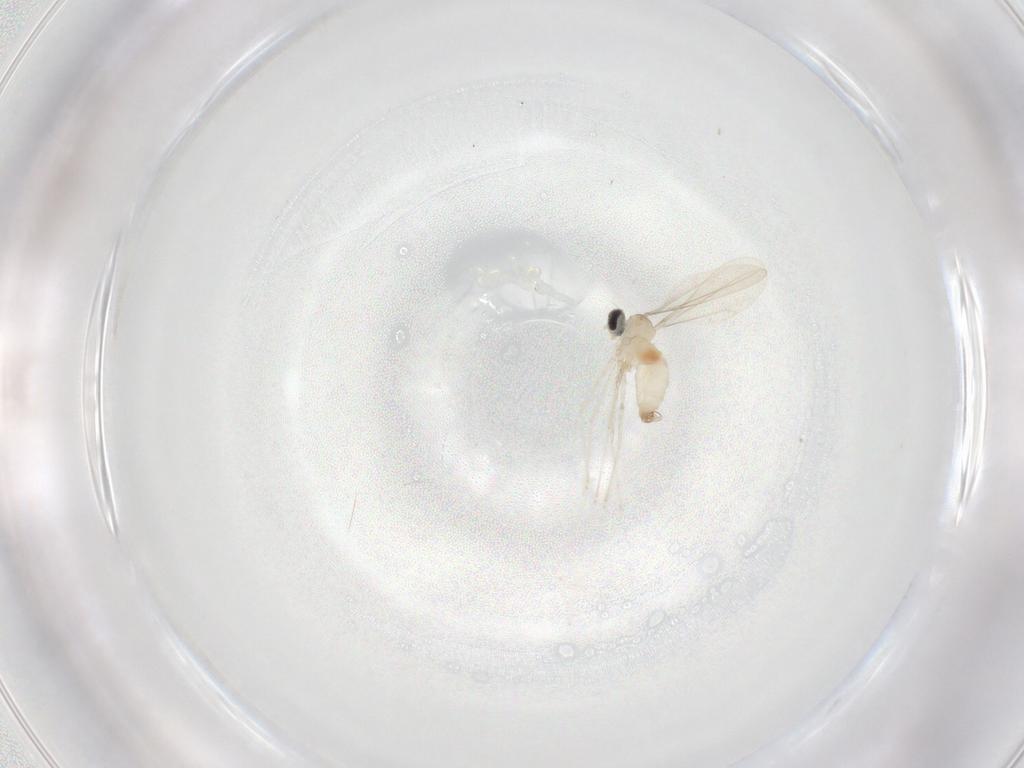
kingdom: Animalia
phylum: Arthropoda
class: Insecta
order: Diptera
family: Cecidomyiidae
